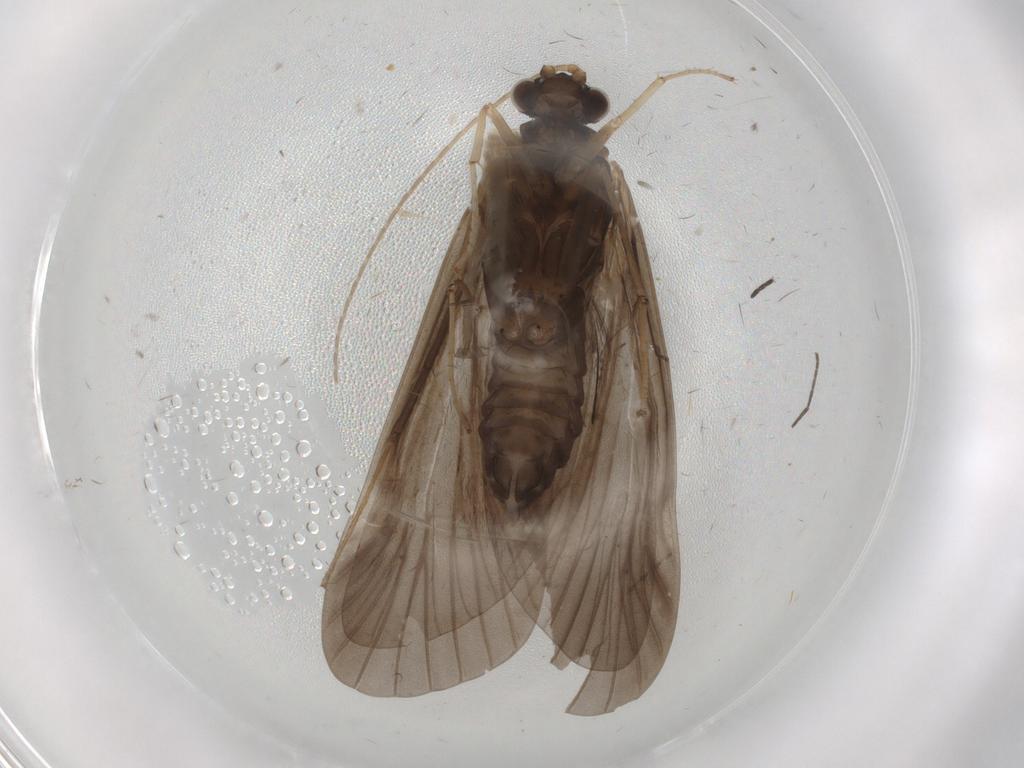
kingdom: Animalia
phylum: Arthropoda
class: Insecta
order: Trichoptera
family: Hydropsychidae
